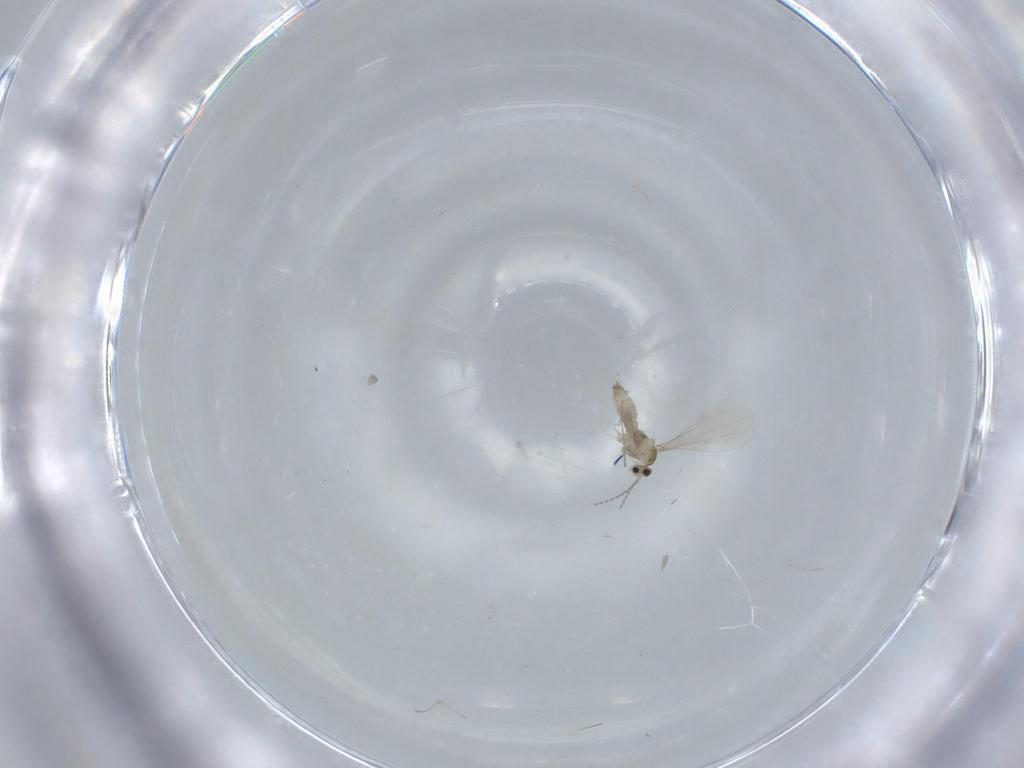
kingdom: Animalia
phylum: Arthropoda
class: Insecta
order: Diptera
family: Cecidomyiidae
